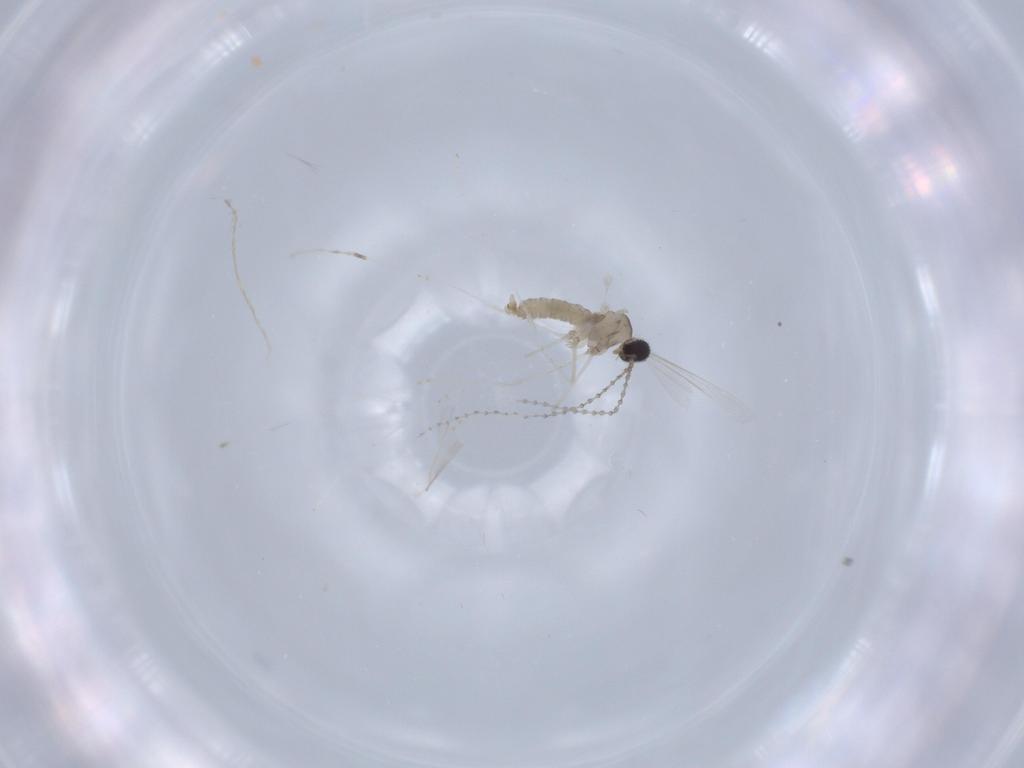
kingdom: Animalia
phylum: Arthropoda
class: Insecta
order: Diptera
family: Cecidomyiidae
